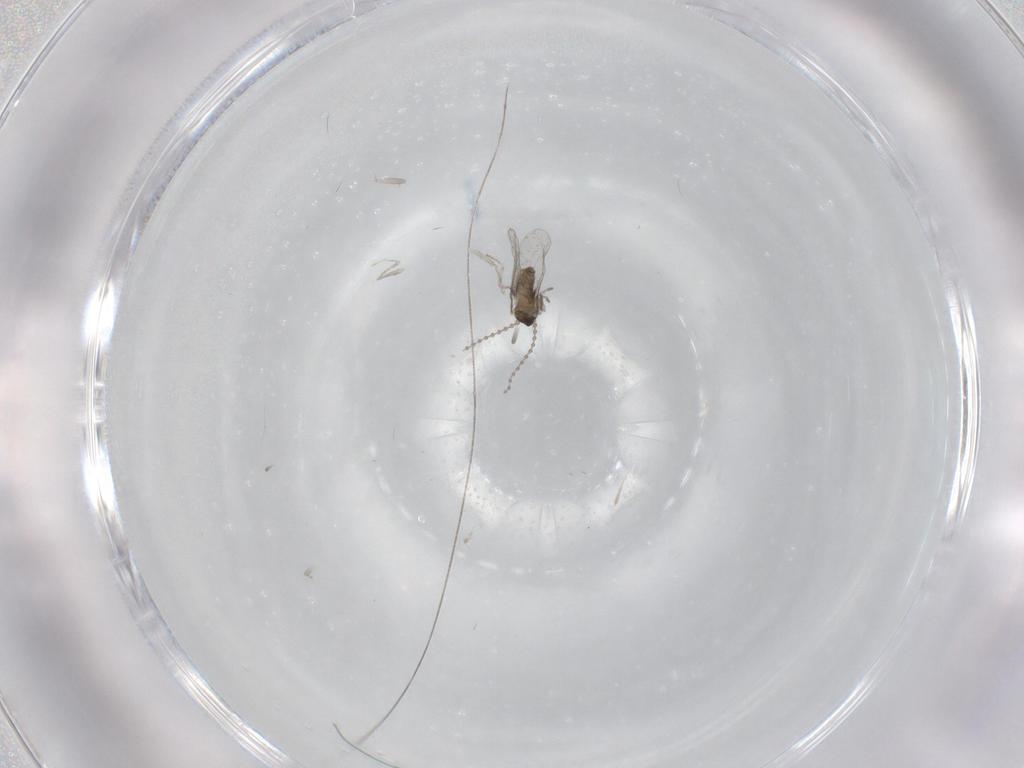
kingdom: Animalia
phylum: Arthropoda
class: Insecta
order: Diptera
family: Cecidomyiidae
